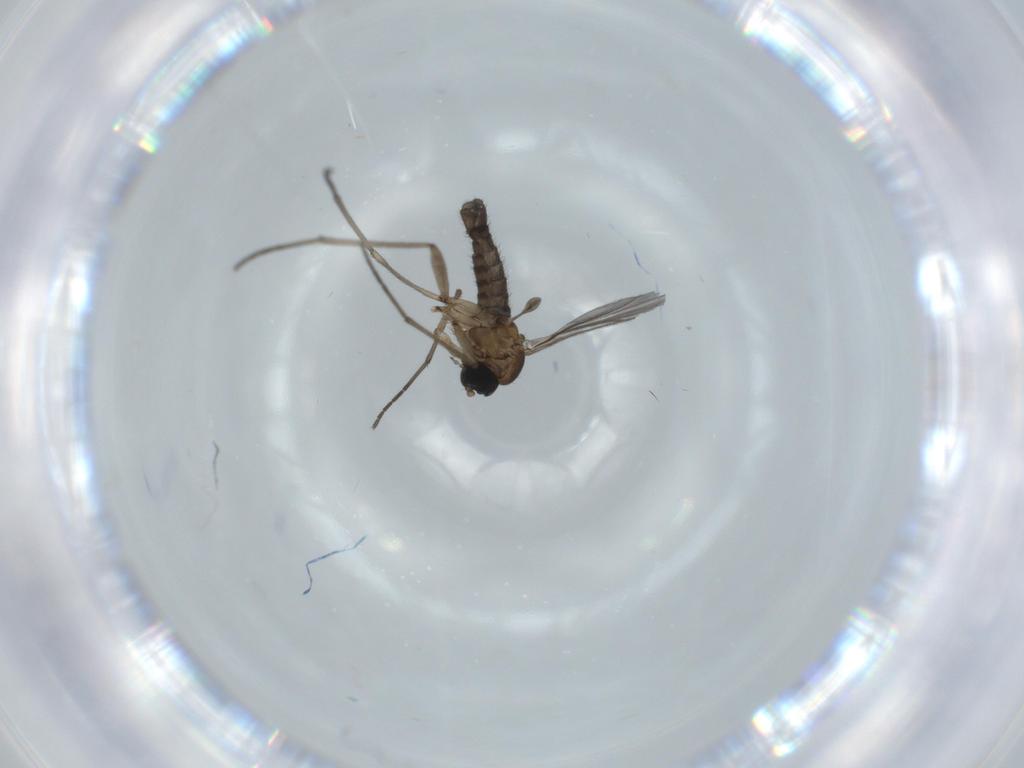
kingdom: Animalia
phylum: Arthropoda
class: Insecta
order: Diptera
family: Sciaridae
